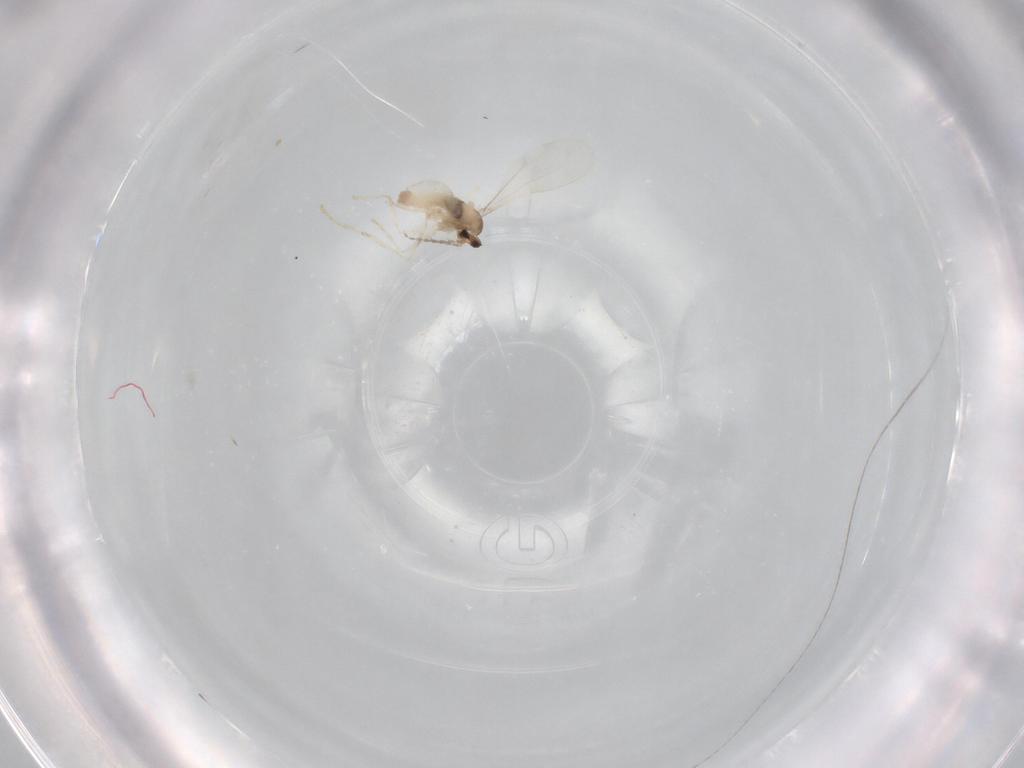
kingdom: Animalia
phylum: Arthropoda
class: Insecta
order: Diptera
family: Cecidomyiidae
